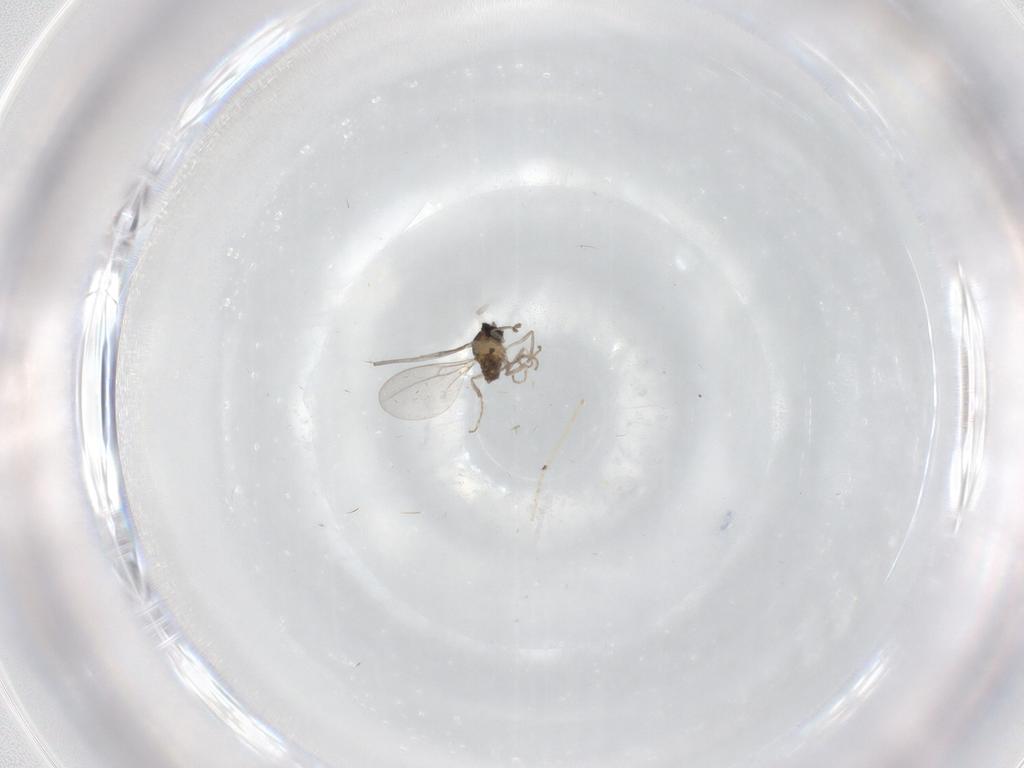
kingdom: Animalia
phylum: Arthropoda
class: Insecta
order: Diptera
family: Cecidomyiidae
